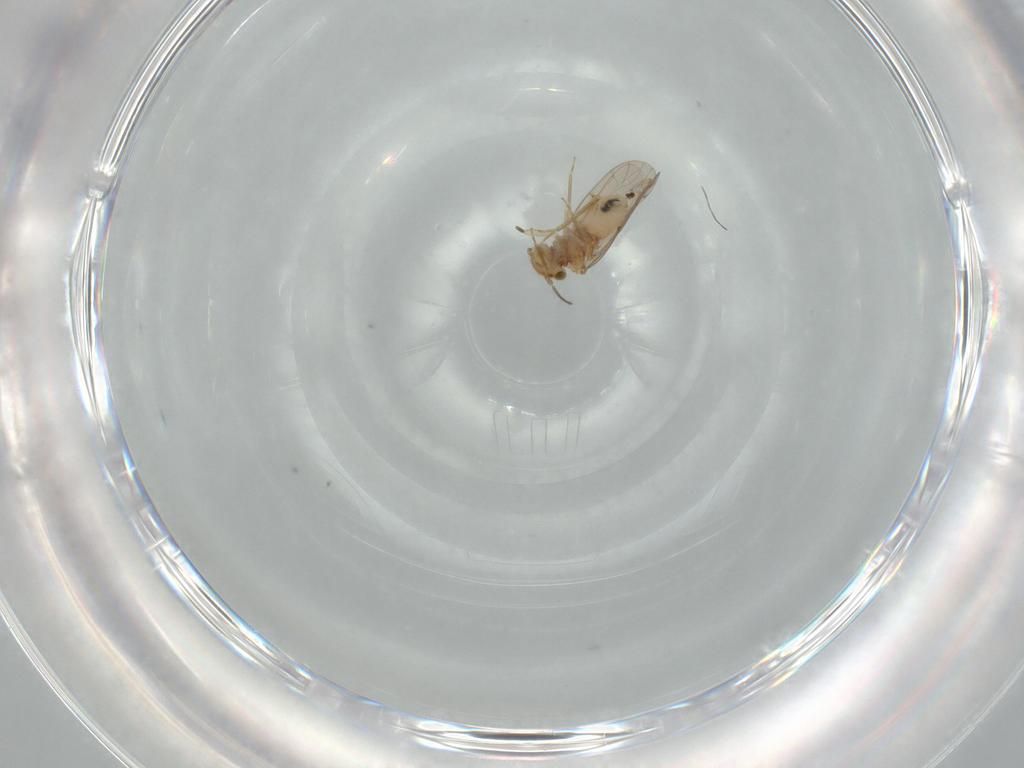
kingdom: Animalia
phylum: Arthropoda
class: Insecta
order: Psocodea
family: Ectopsocidae
